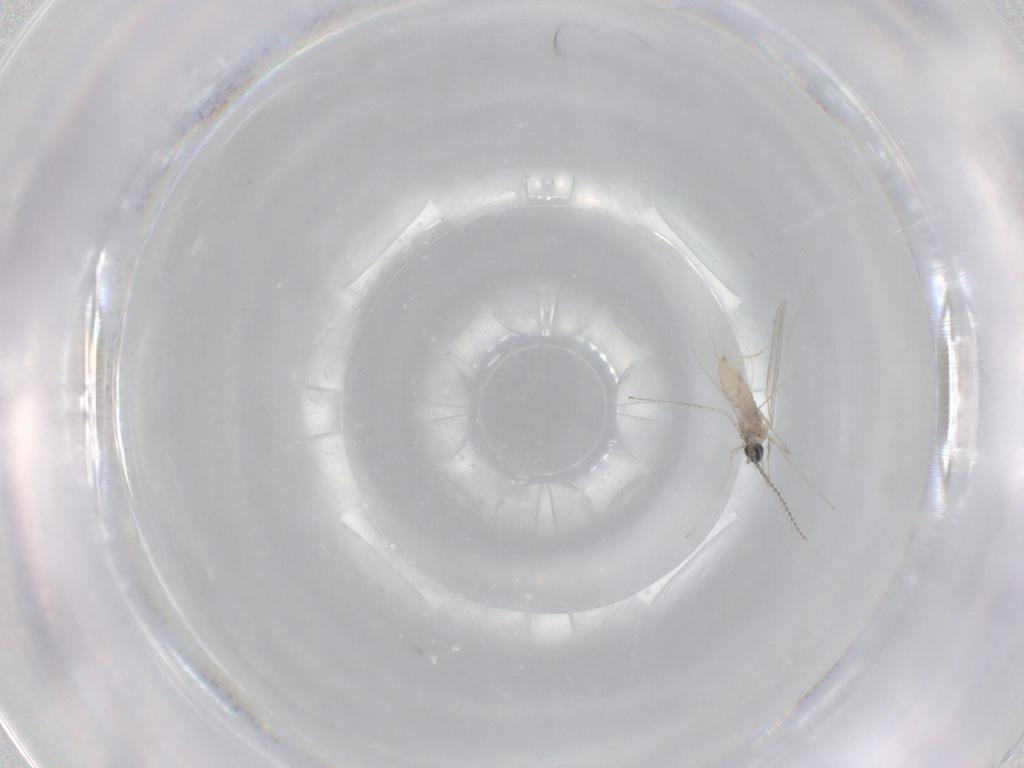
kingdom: Animalia
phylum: Arthropoda
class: Insecta
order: Diptera
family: Cecidomyiidae
